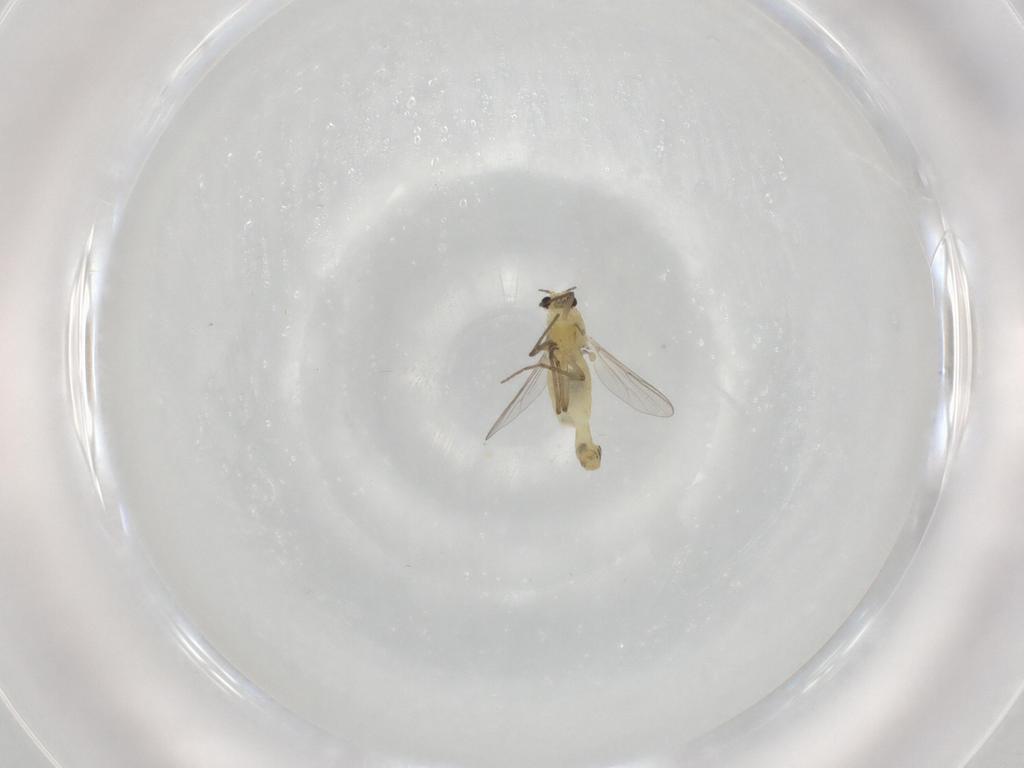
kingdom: Animalia
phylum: Arthropoda
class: Insecta
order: Diptera
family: Chironomidae
